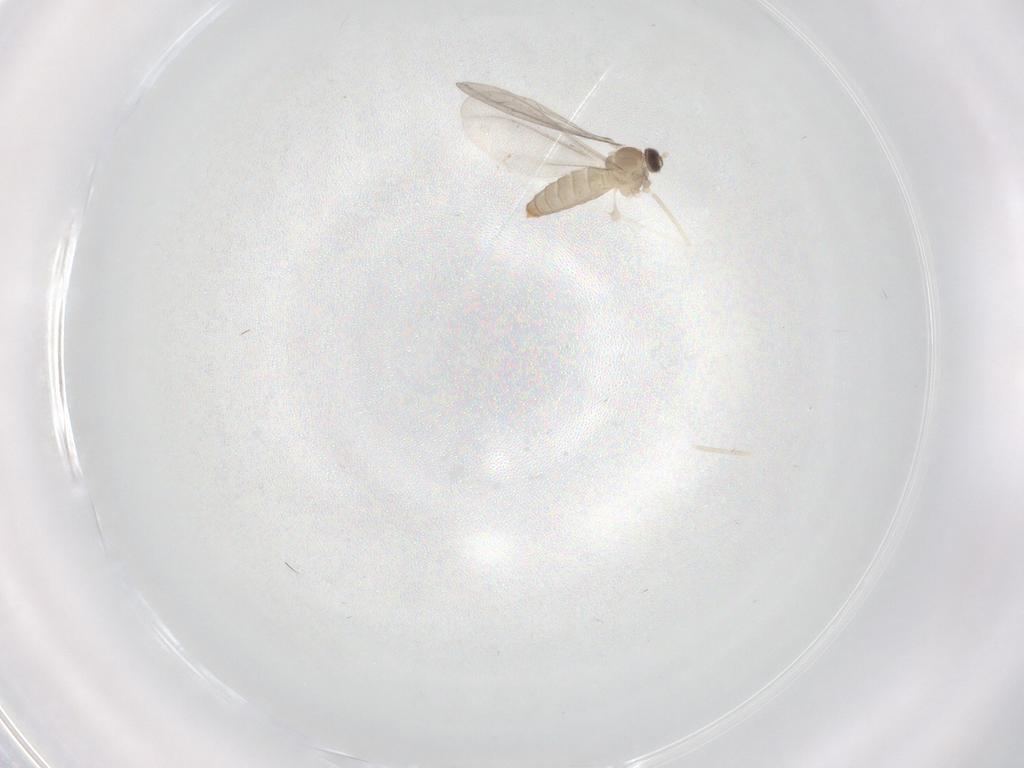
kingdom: Animalia
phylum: Arthropoda
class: Insecta
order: Diptera
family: Cecidomyiidae
